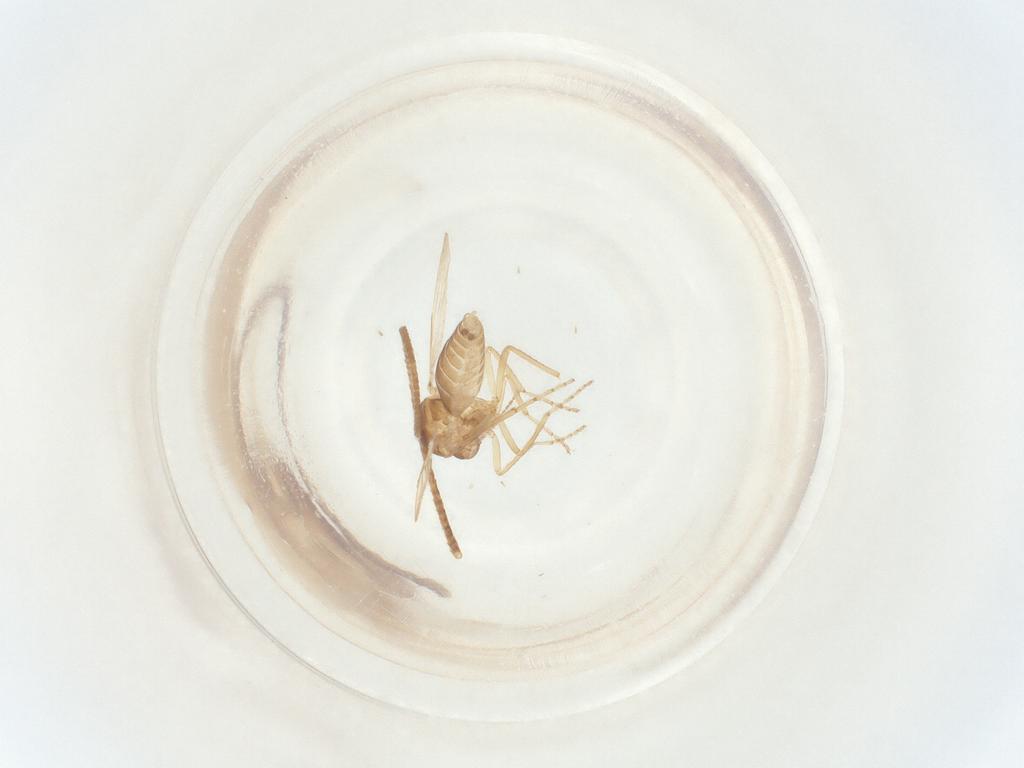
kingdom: Animalia
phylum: Arthropoda
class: Insecta
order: Diptera
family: Ceratopogonidae
